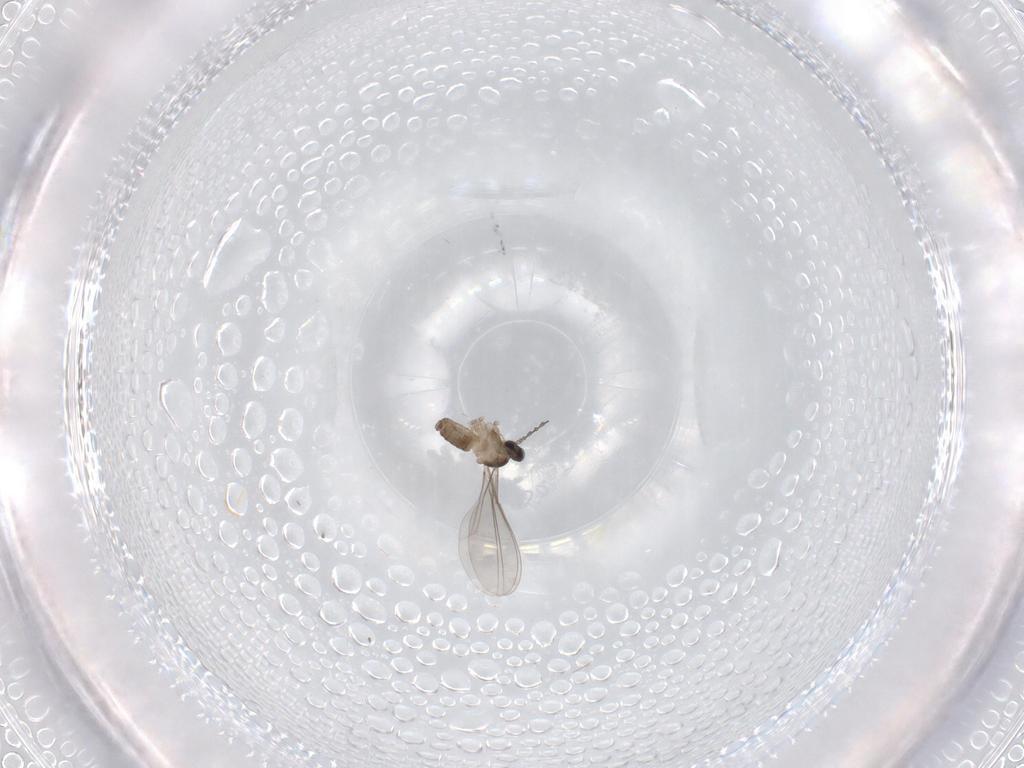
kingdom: Animalia
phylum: Arthropoda
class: Insecta
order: Diptera
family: Cecidomyiidae
